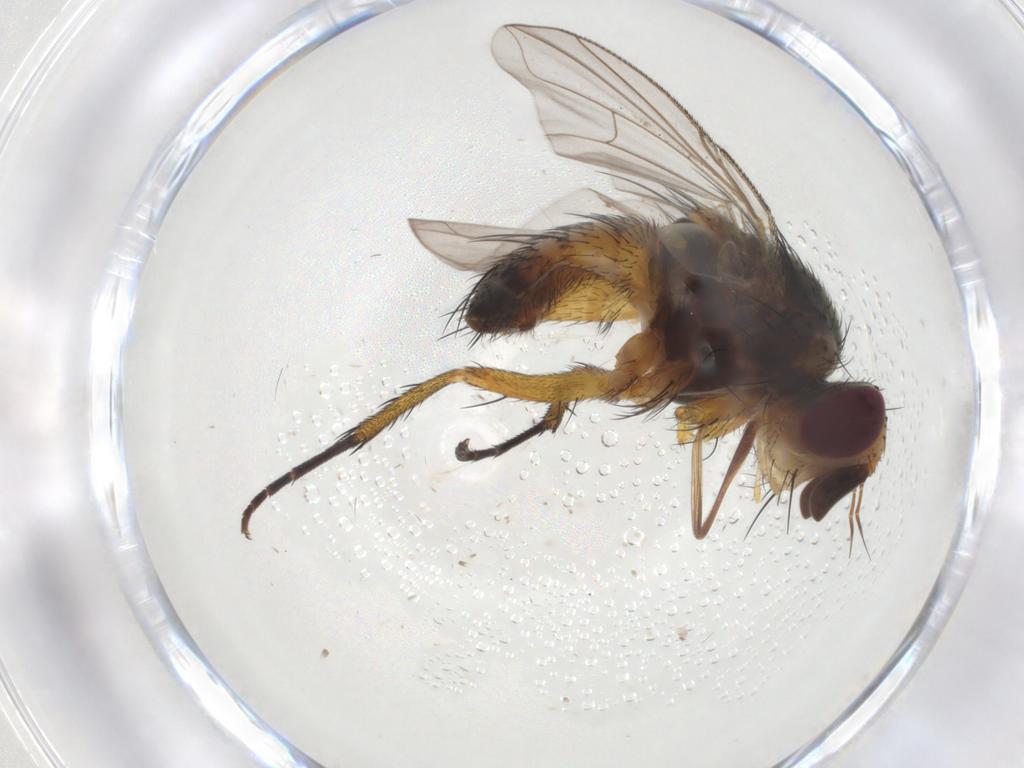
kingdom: Animalia
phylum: Arthropoda
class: Insecta
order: Diptera
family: Tachinidae
